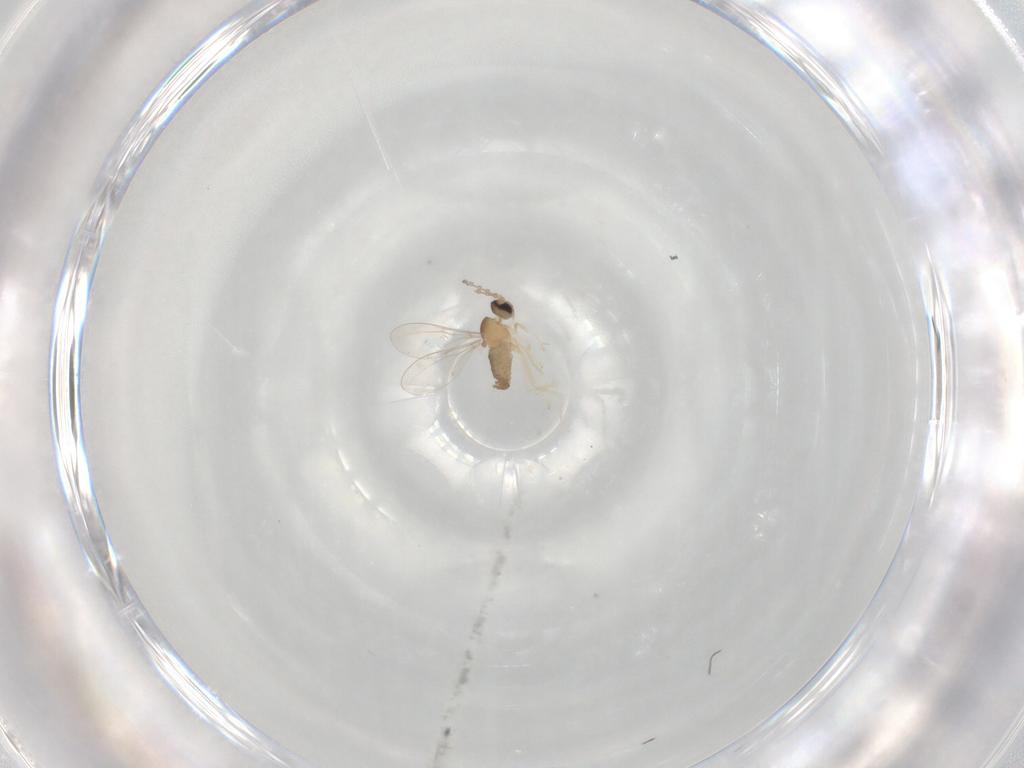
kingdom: Animalia
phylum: Arthropoda
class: Insecta
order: Diptera
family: Cecidomyiidae
